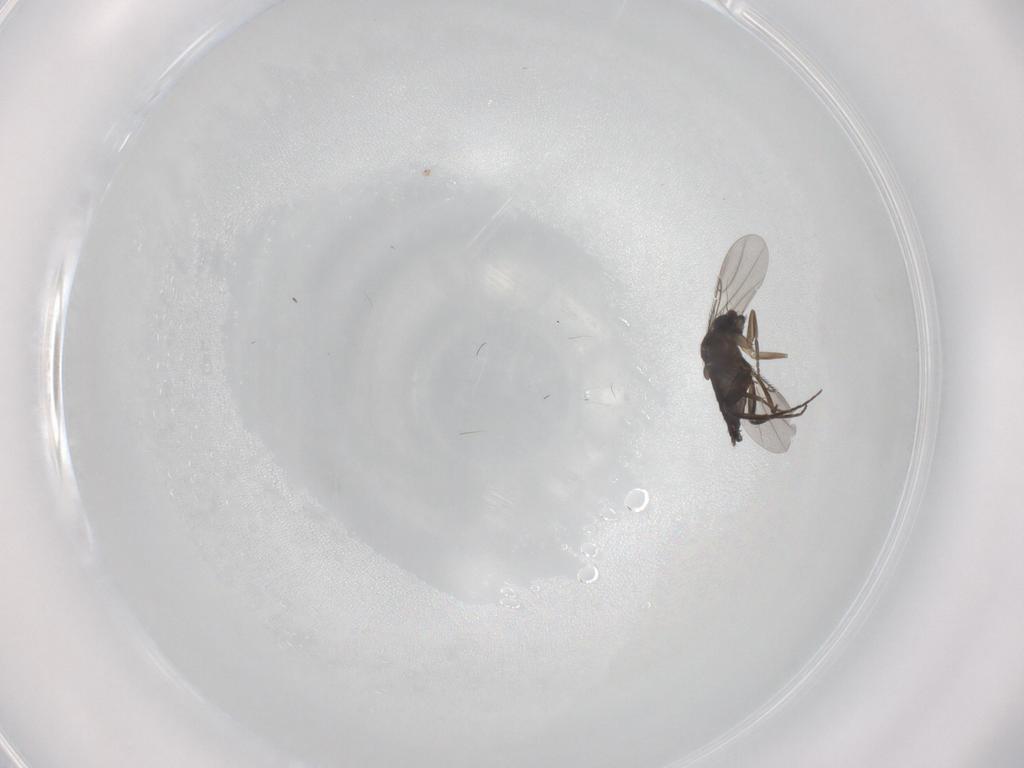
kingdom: Animalia
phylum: Arthropoda
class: Insecta
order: Diptera
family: Phoridae
